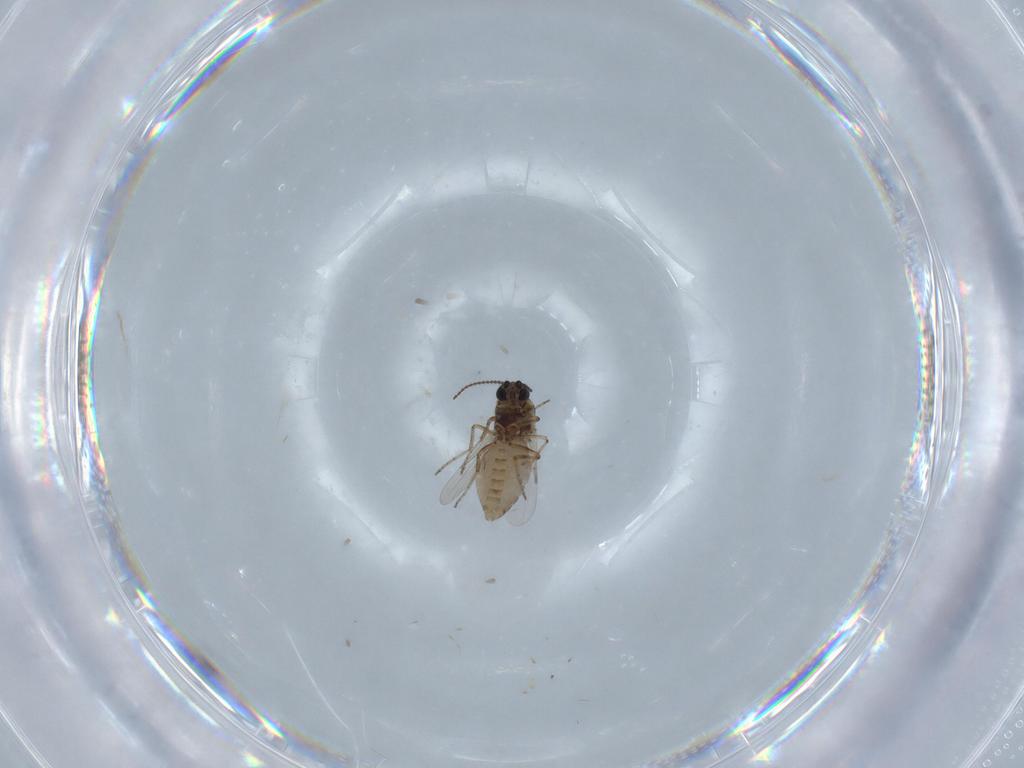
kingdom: Animalia
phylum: Arthropoda
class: Insecta
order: Diptera
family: Ceratopogonidae
